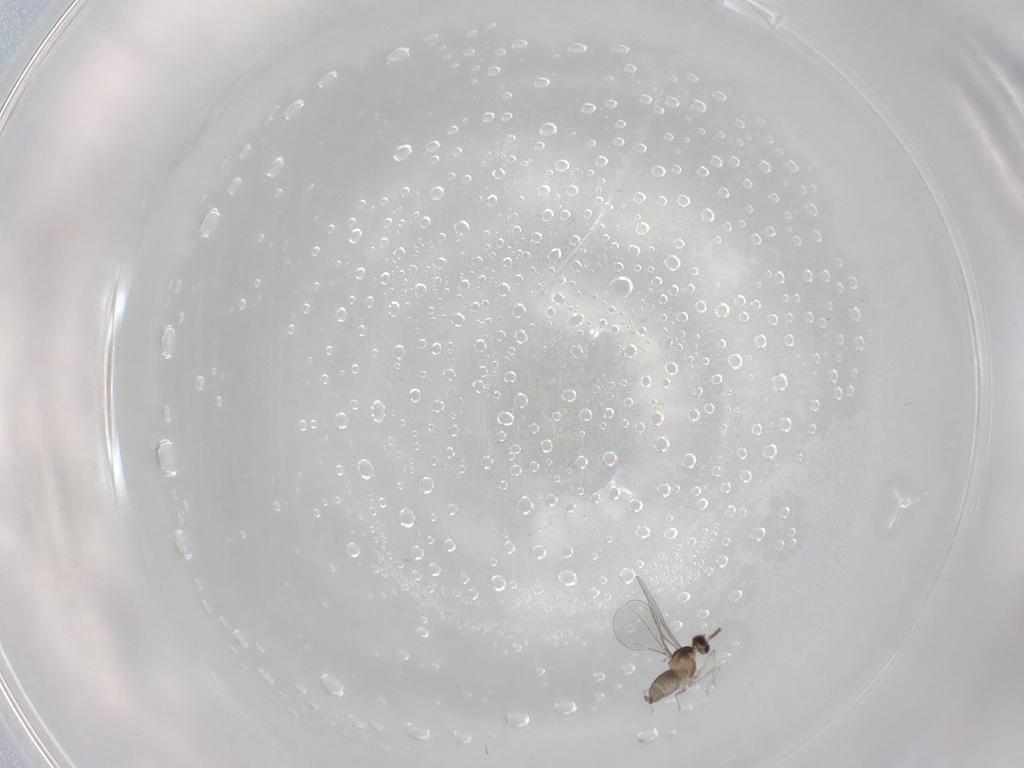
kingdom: Animalia
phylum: Arthropoda
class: Insecta
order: Diptera
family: Cecidomyiidae
